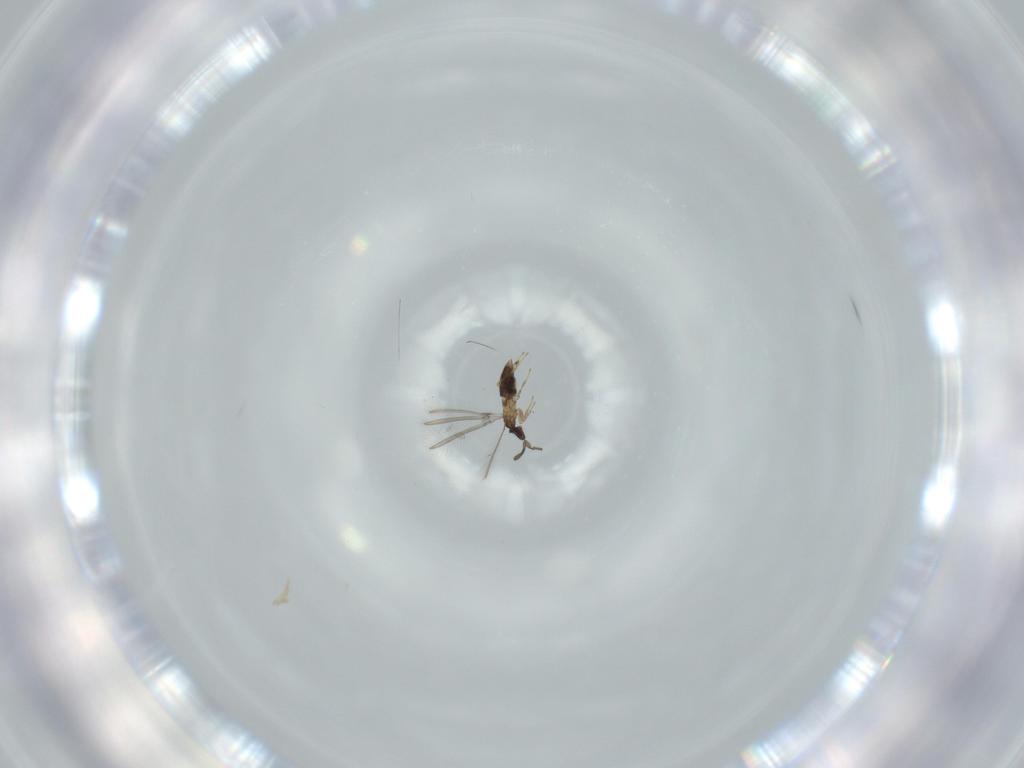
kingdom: Animalia
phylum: Arthropoda
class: Insecta
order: Hymenoptera
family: Mymaridae
